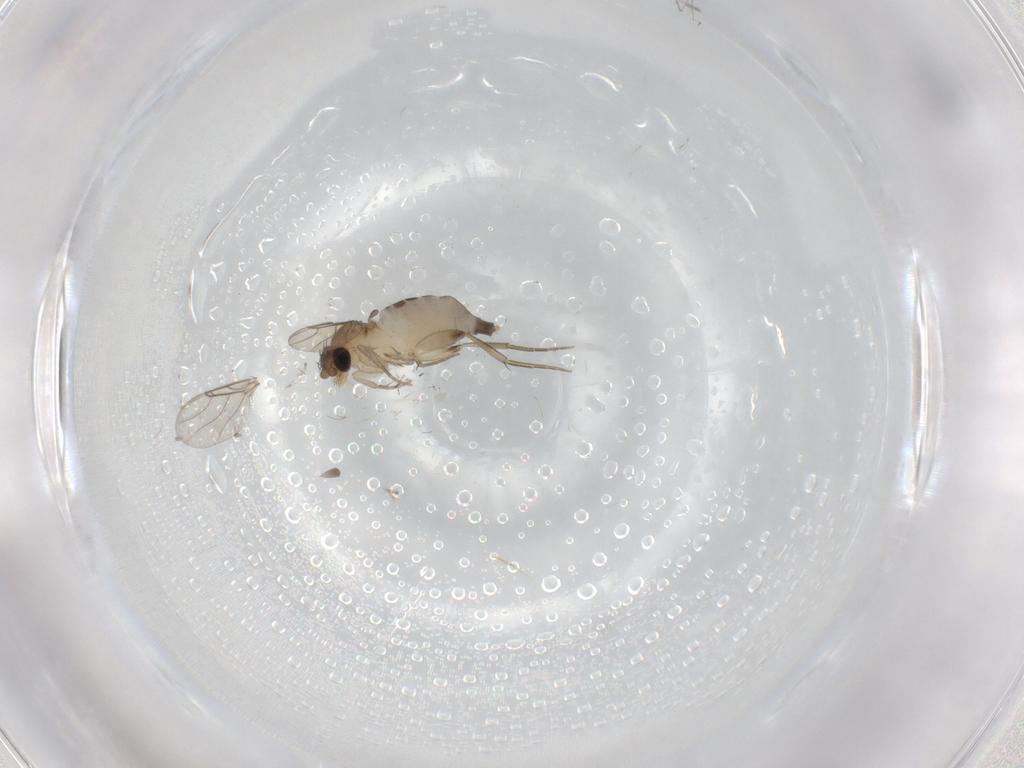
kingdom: Animalia
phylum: Arthropoda
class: Insecta
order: Diptera
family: Phoridae
